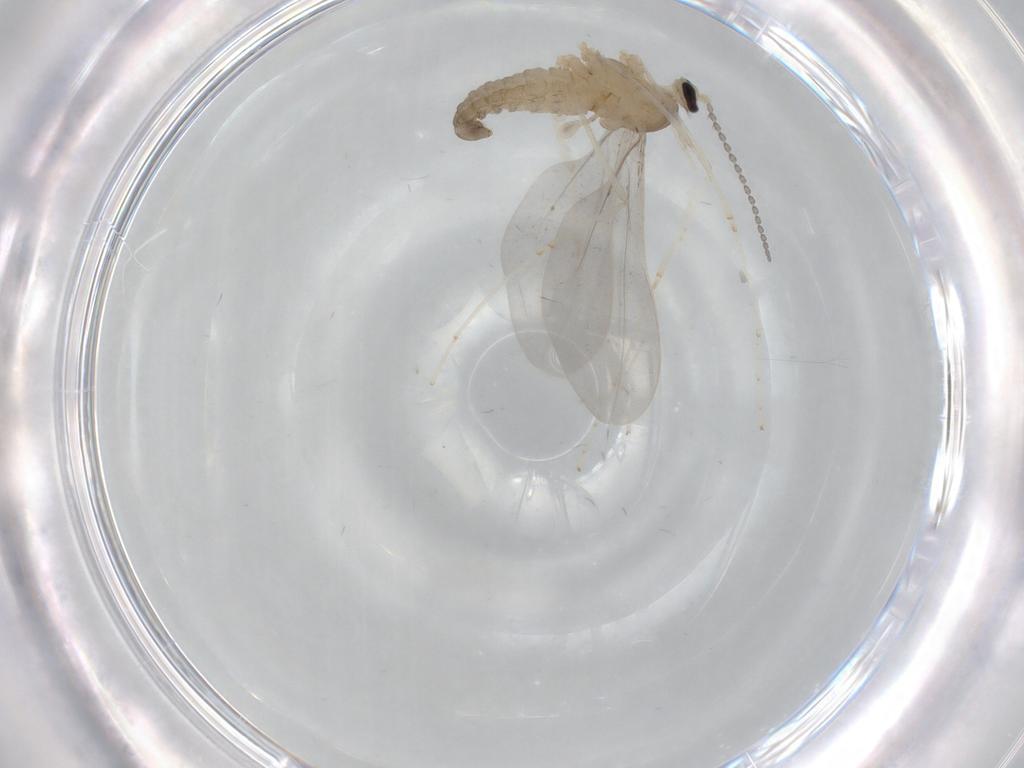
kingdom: Animalia
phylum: Arthropoda
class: Insecta
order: Diptera
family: Cecidomyiidae
